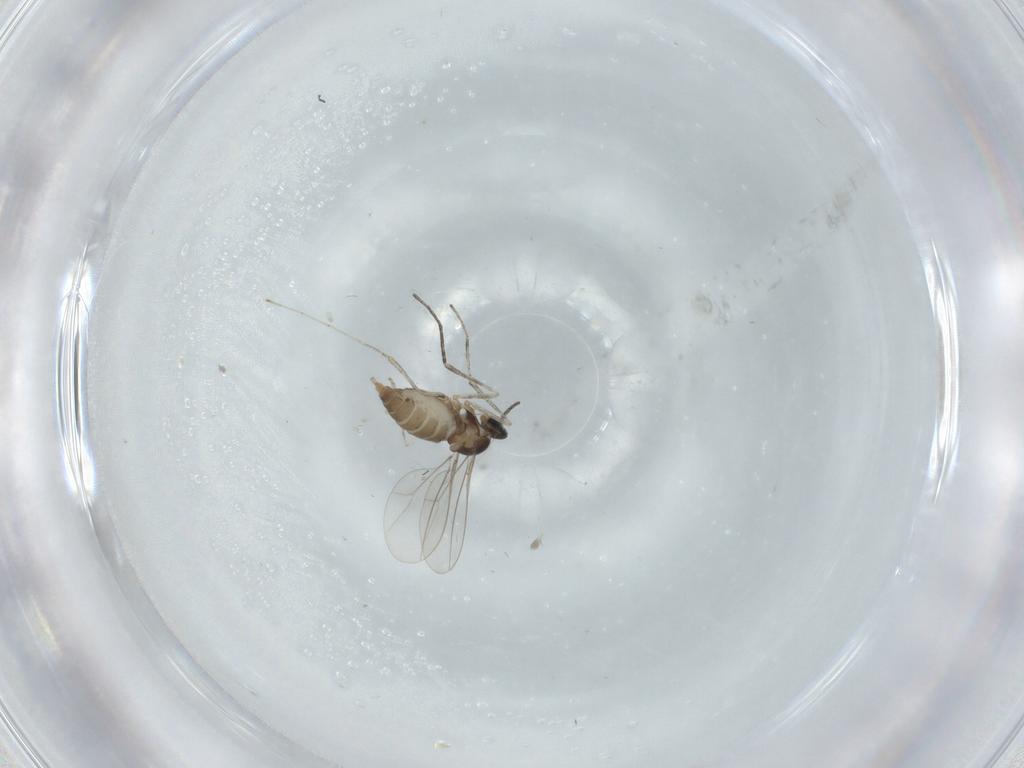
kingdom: Animalia
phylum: Arthropoda
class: Insecta
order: Diptera
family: Cecidomyiidae
